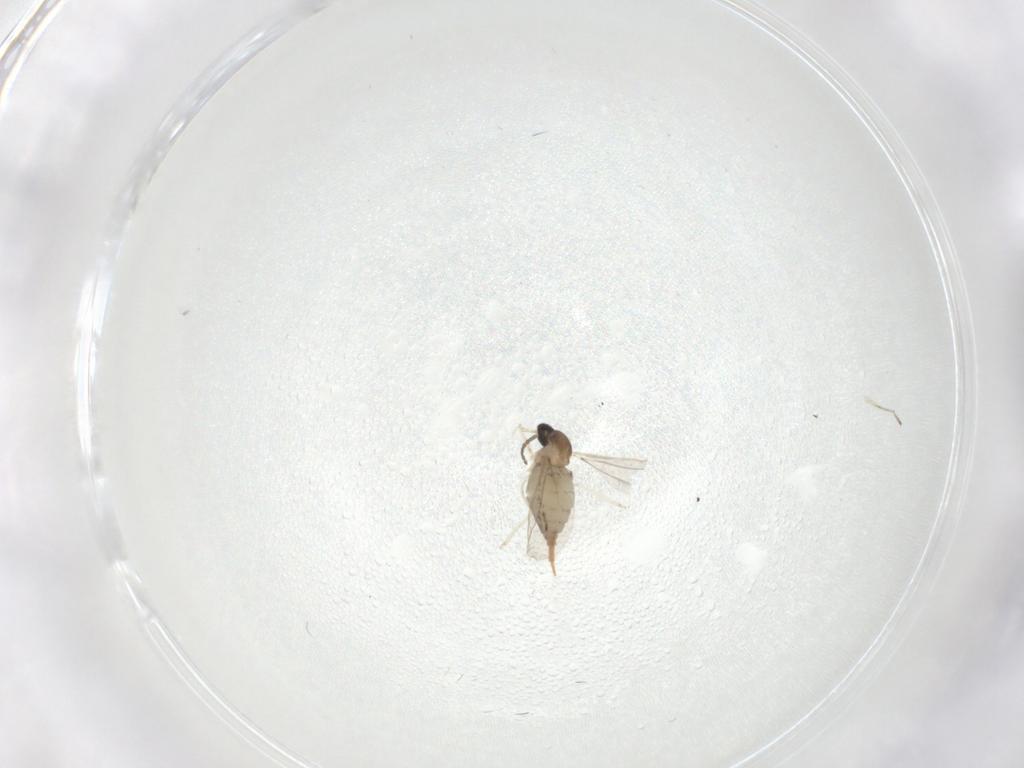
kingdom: Animalia
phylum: Arthropoda
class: Insecta
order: Diptera
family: Cecidomyiidae
